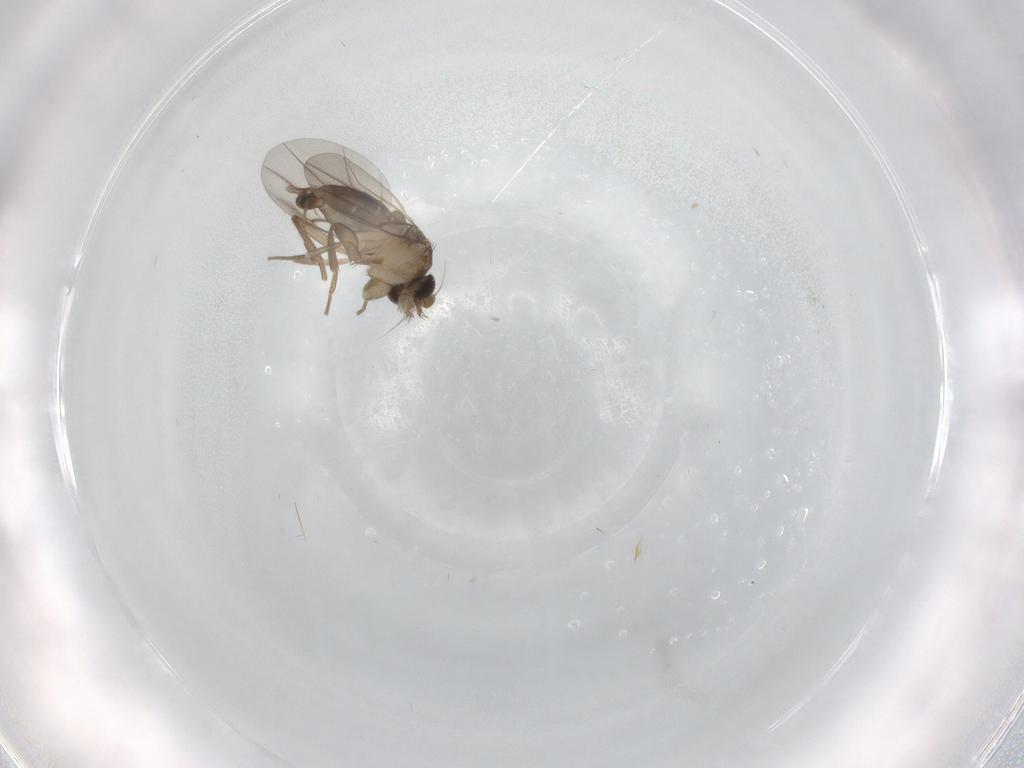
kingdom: Animalia
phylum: Arthropoda
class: Insecta
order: Diptera
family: Phoridae
